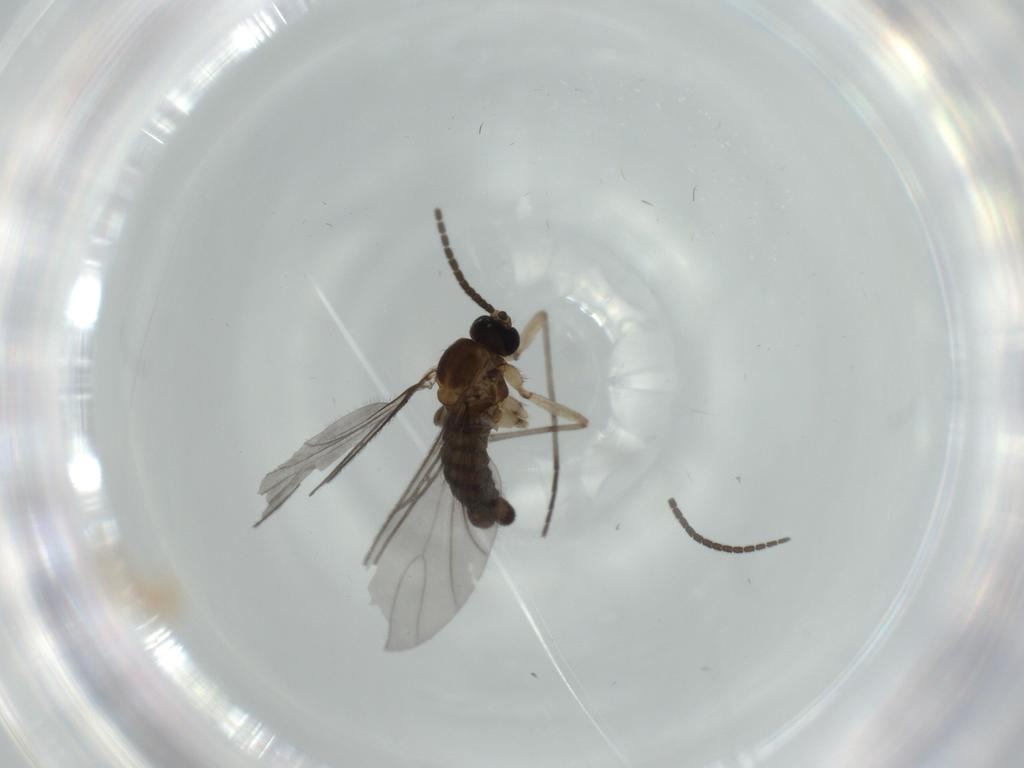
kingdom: Animalia
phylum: Arthropoda
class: Insecta
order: Diptera
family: Sciaridae
